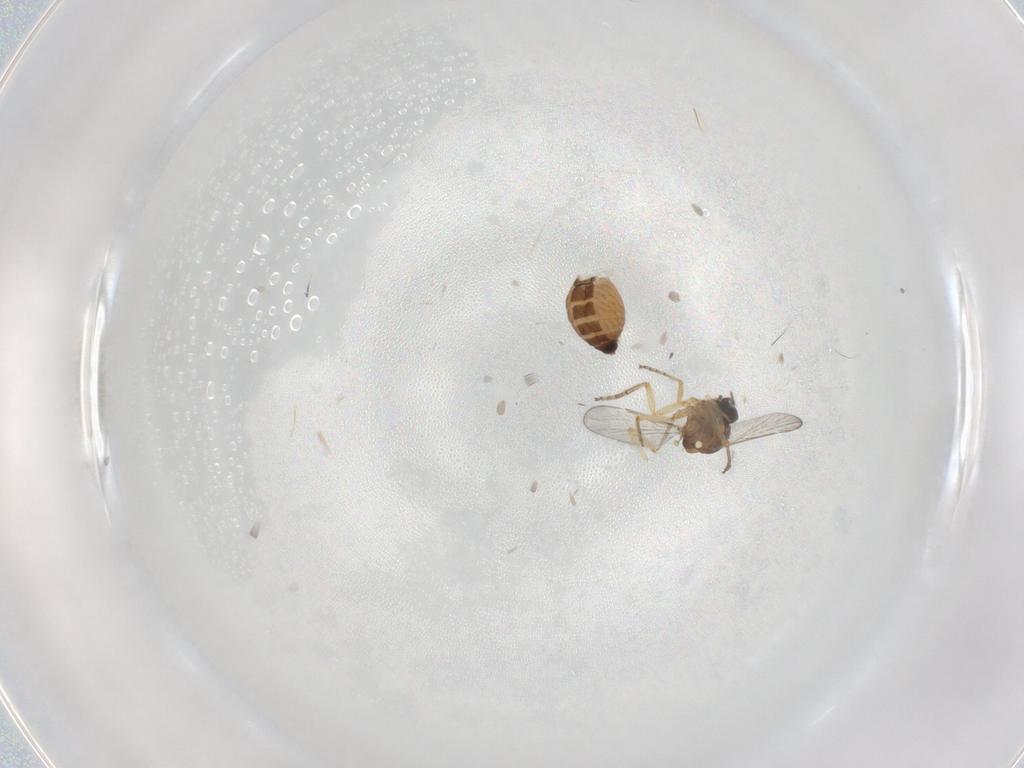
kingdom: Animalia
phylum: Arthropoda
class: Insecta
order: Diptera
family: Ceratopogonidae
